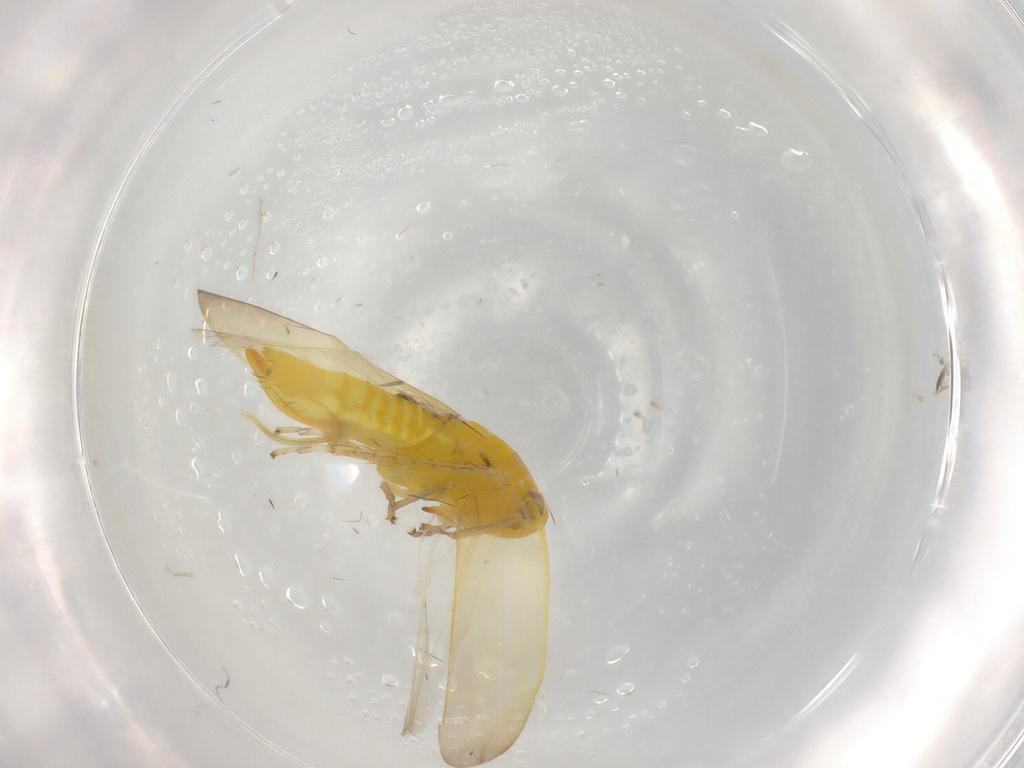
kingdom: Animalia
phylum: Arthropoda
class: Insecta
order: Hemiptera
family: Cicadellidae
